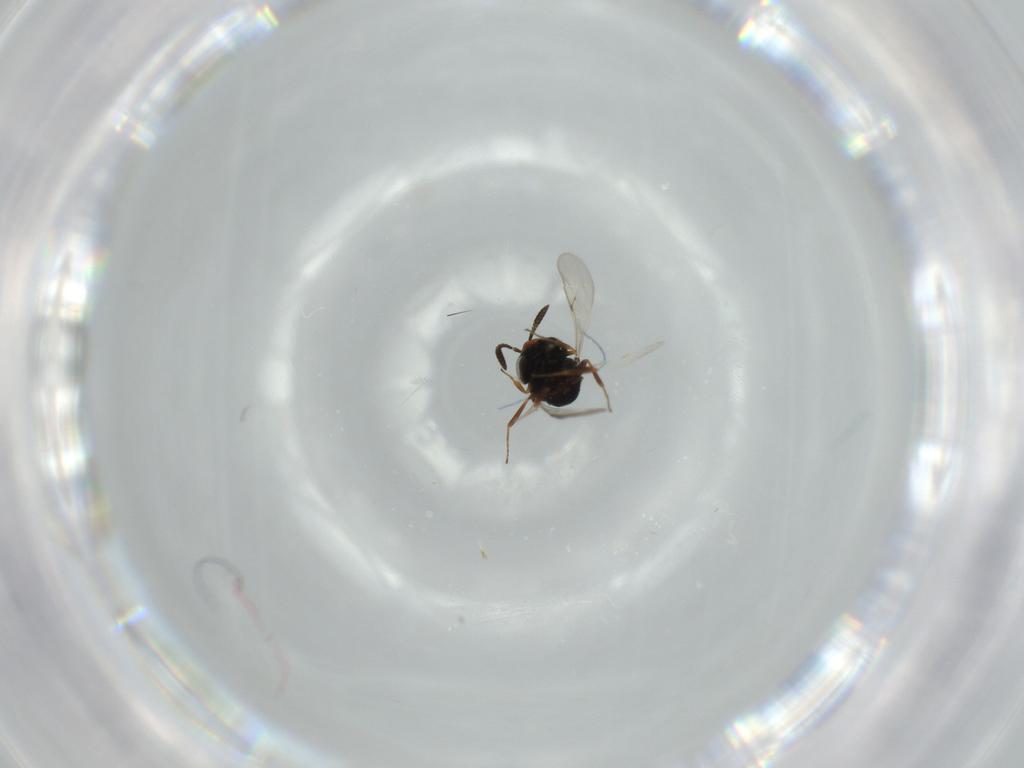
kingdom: Animalia
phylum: Arthropoda
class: Insecta
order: Hymenoptera
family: Scelionidae
